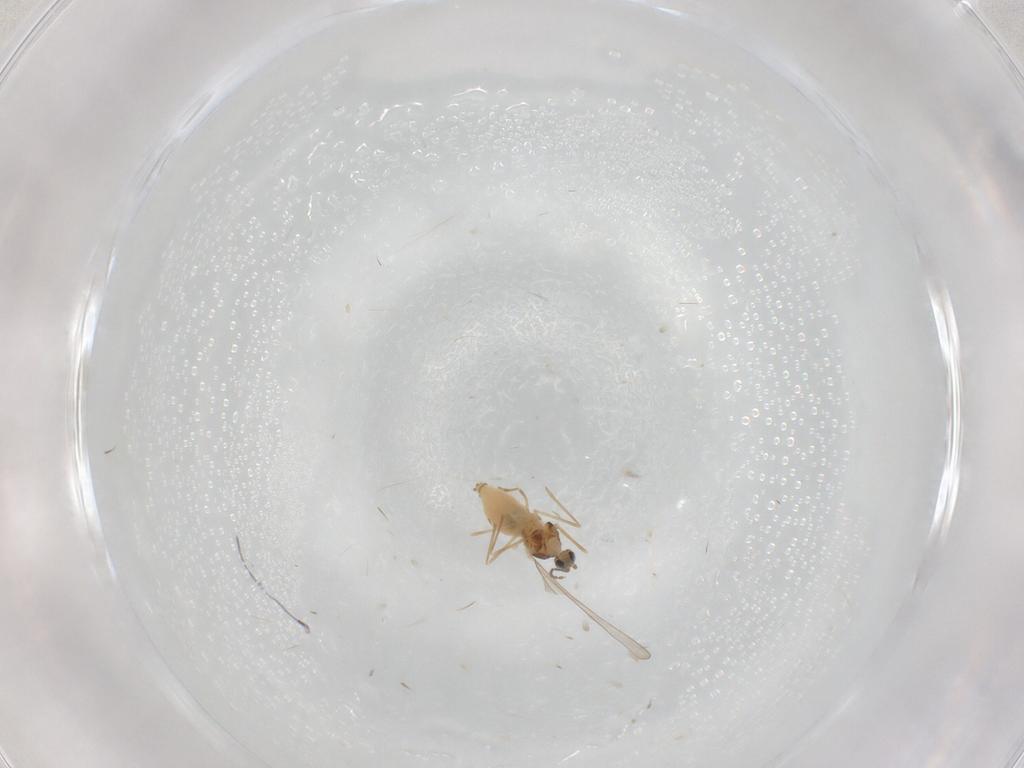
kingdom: Animalia
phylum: Arthropoda
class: Insecta
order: Diptera
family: Cecidomyiidae
